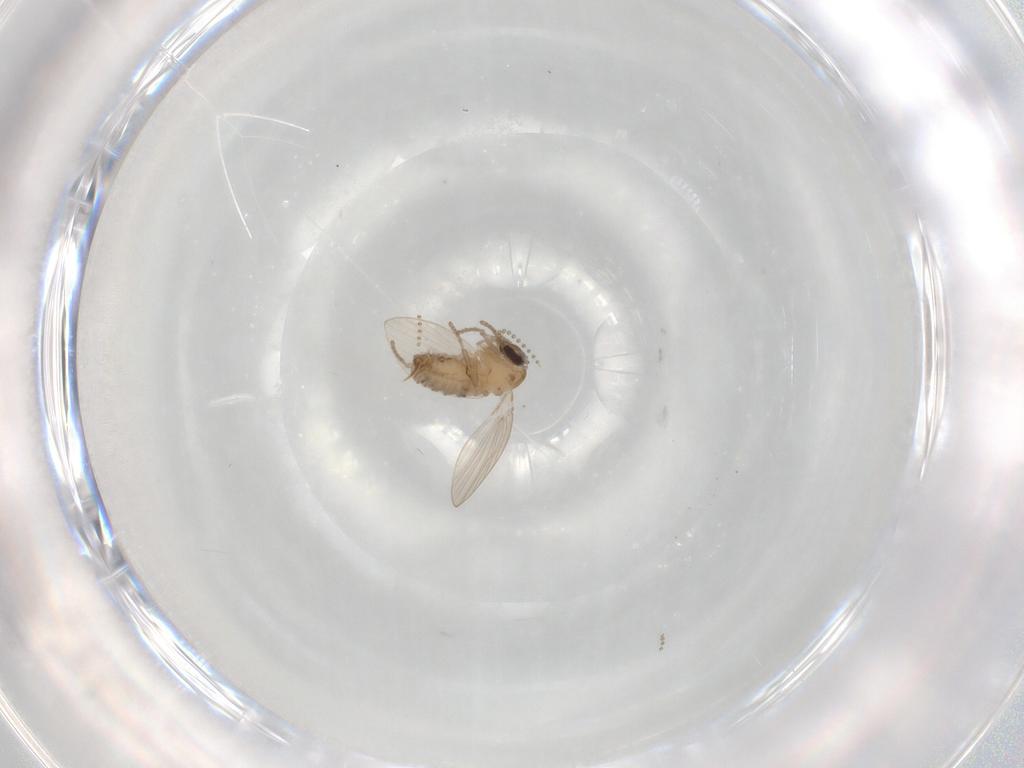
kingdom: Animalia
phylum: Arthropoda
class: Insecta
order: Diptera
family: Psychodidae
